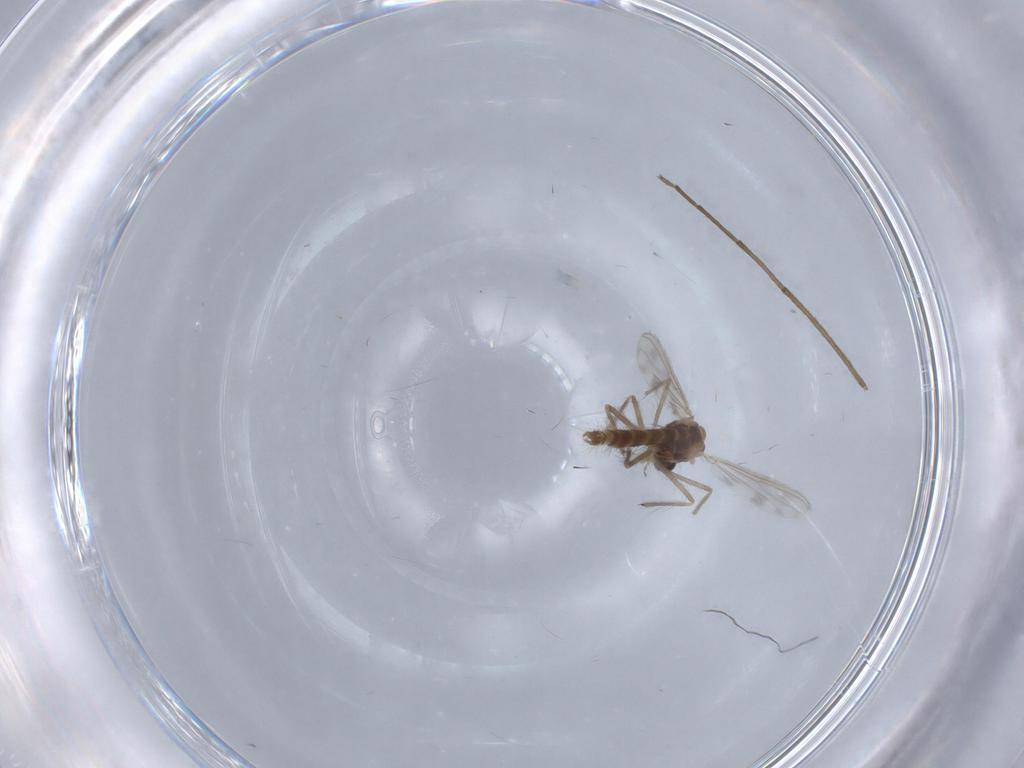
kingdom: Animalia
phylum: Arthropoda
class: Insecta
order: Diptera
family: Chironomidae
